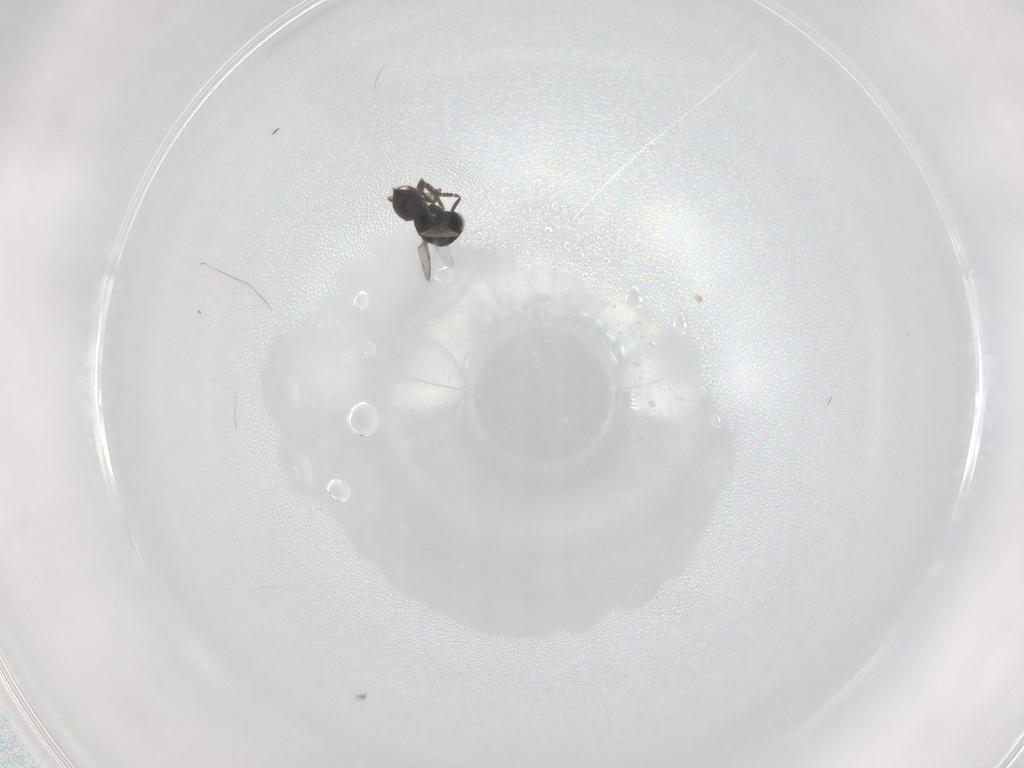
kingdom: Animalia
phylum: Arthropoda
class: Insecta
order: Hymenoptera
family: Scelionidae
